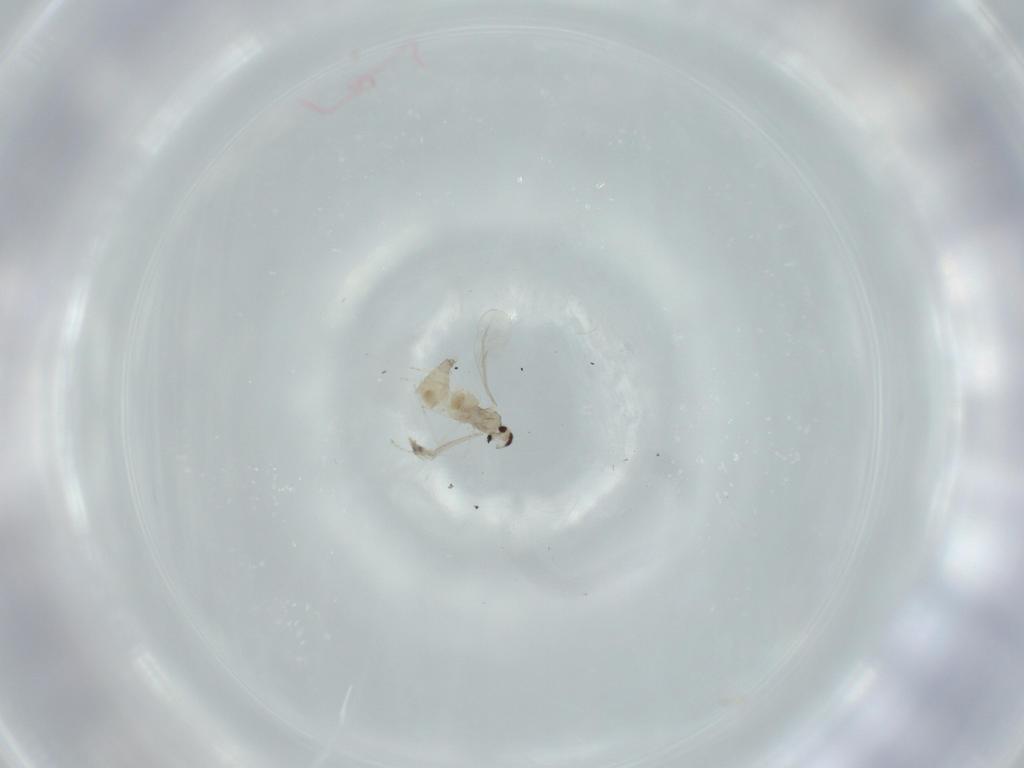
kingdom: Animalia
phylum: Arthropoda
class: Insecta
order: Diptera
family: Cecidomyiidae
